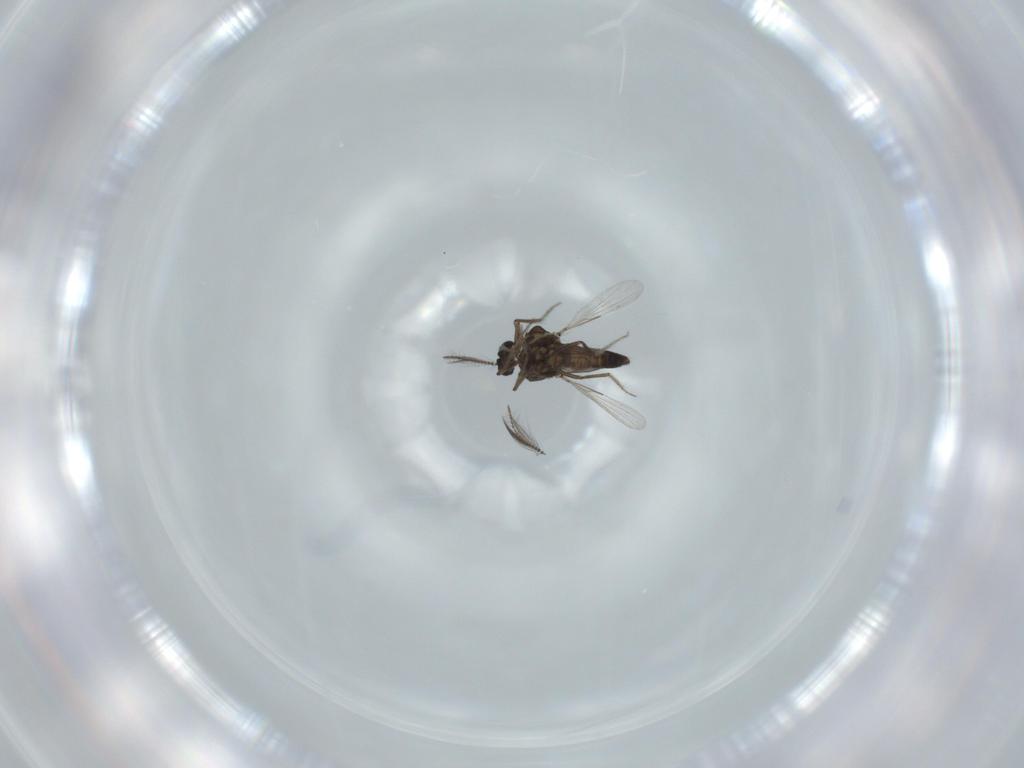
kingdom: Animalia
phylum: Arthropoda
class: Insecta
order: Diptera
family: Ceratopogonidae
